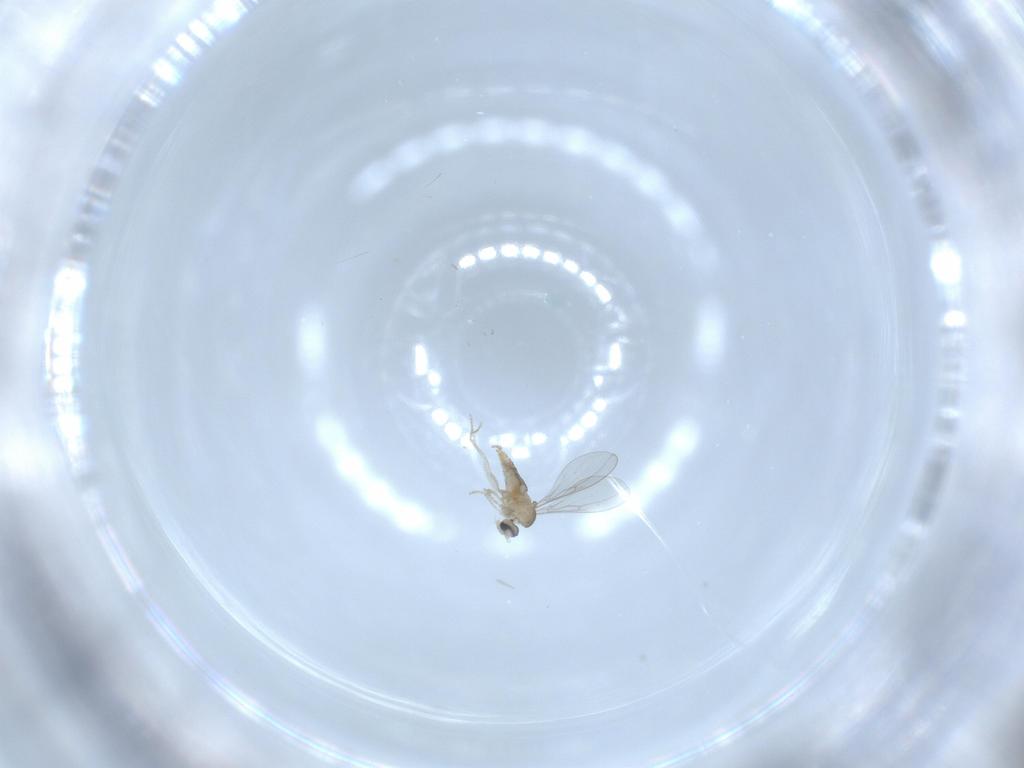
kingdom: Animalia
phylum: Arthropoda
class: Insecta
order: Diptera
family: Cecidomyiidae
